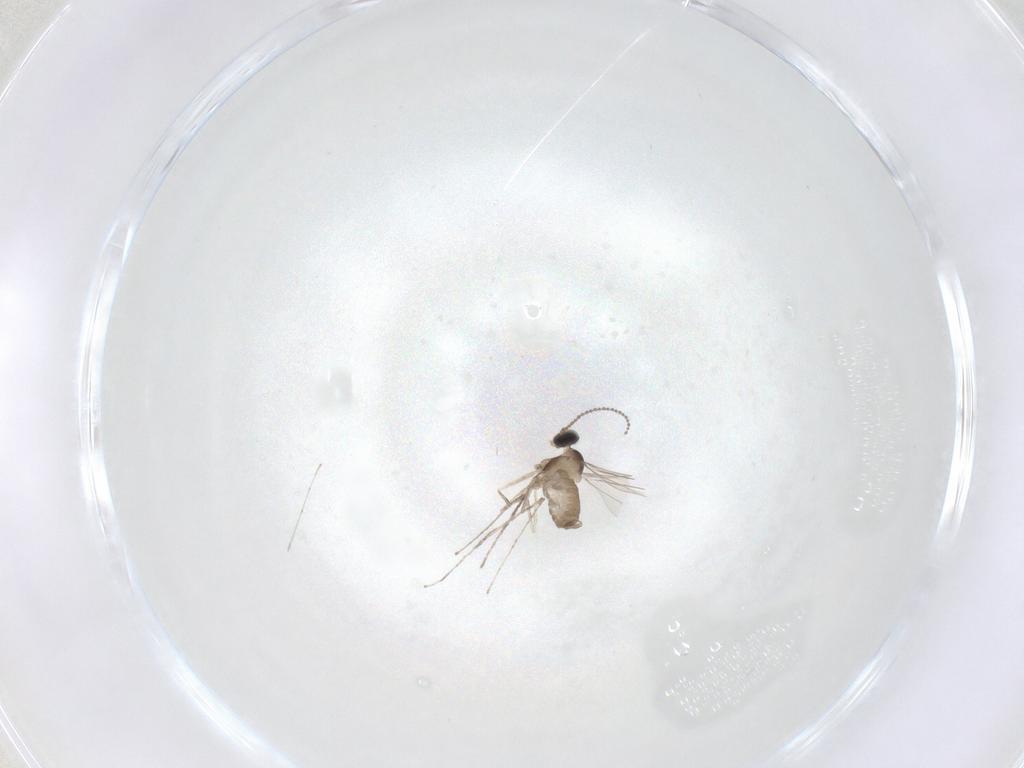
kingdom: Animalia
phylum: Arthropoda
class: Insecta
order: Diptera
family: Cecidomyiidae
